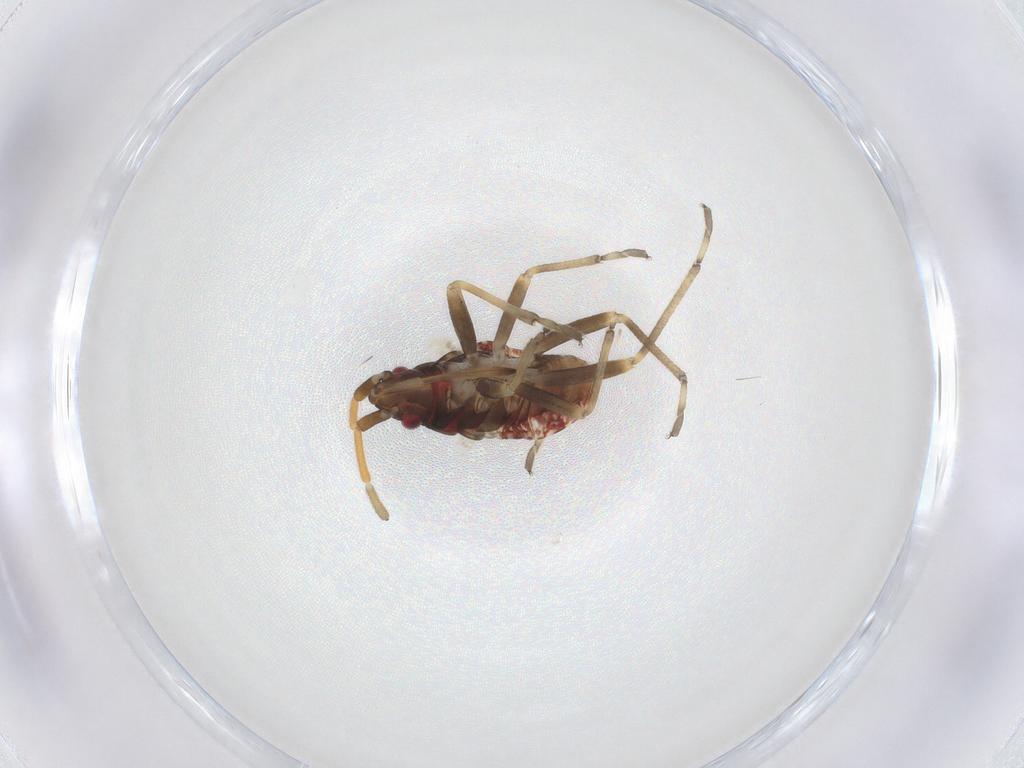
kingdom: Animalia
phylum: Arthropoda
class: Insecta
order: Hemiptera
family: Rhyparochromidae
